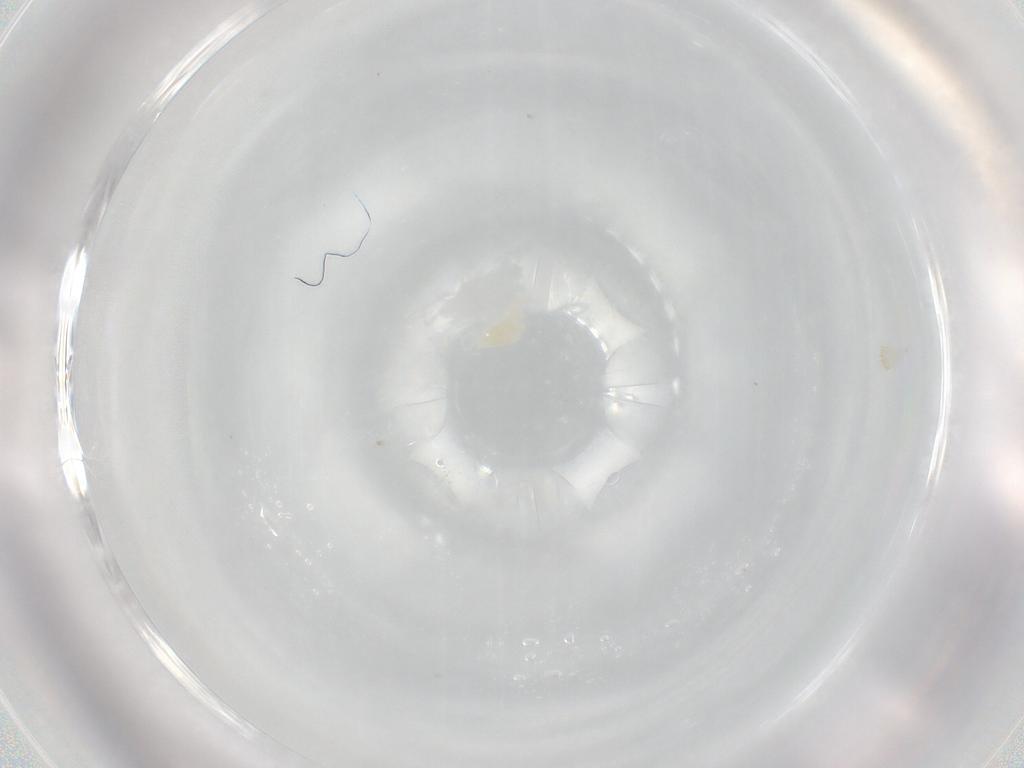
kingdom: Animalia
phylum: Arthropoda
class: Arachnida
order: Trombidiformes
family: Eupodidae
